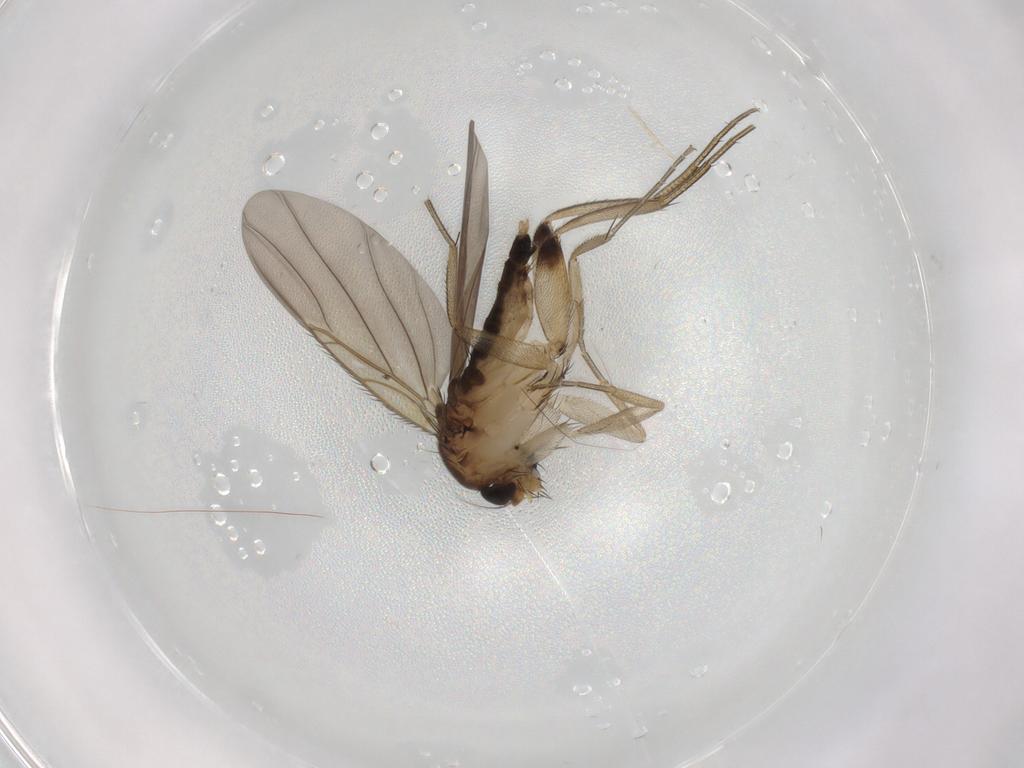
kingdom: Animalia
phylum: Arthropoda
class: Insecta
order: Diptera
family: Phoridae
